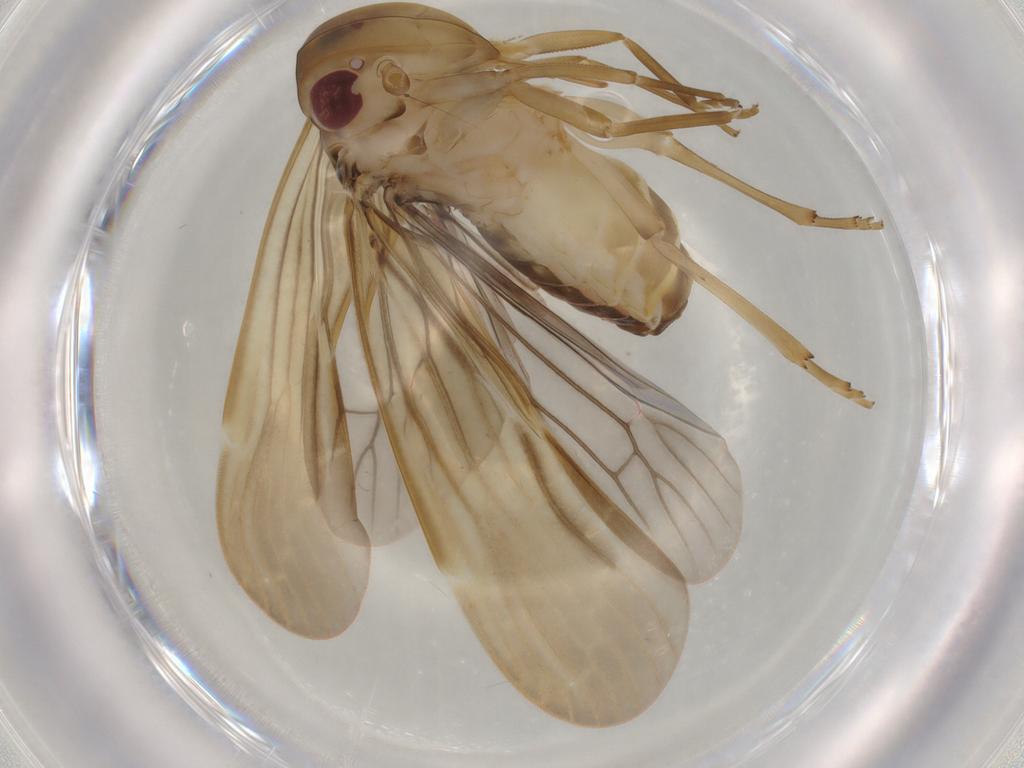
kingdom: Animalia
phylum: Arthropoda
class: Insecta
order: Hemiptera
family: Achilidae
